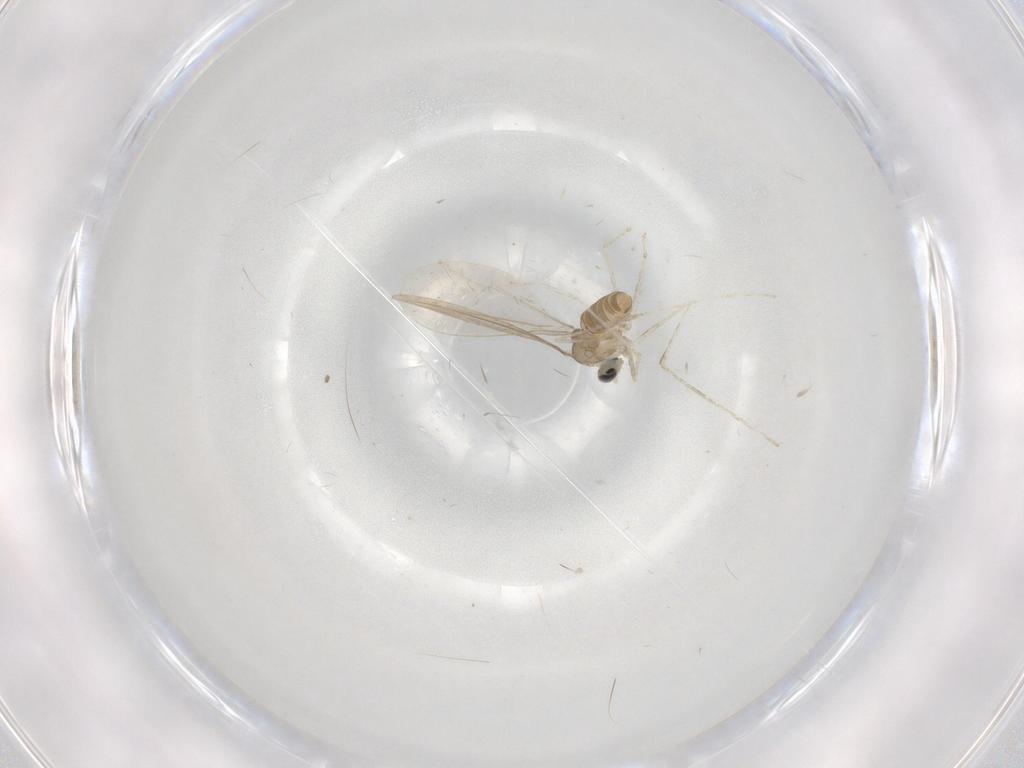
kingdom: Animalia
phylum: Arthropoda
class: Insecta
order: Diptera
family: Cecidomyiidae
